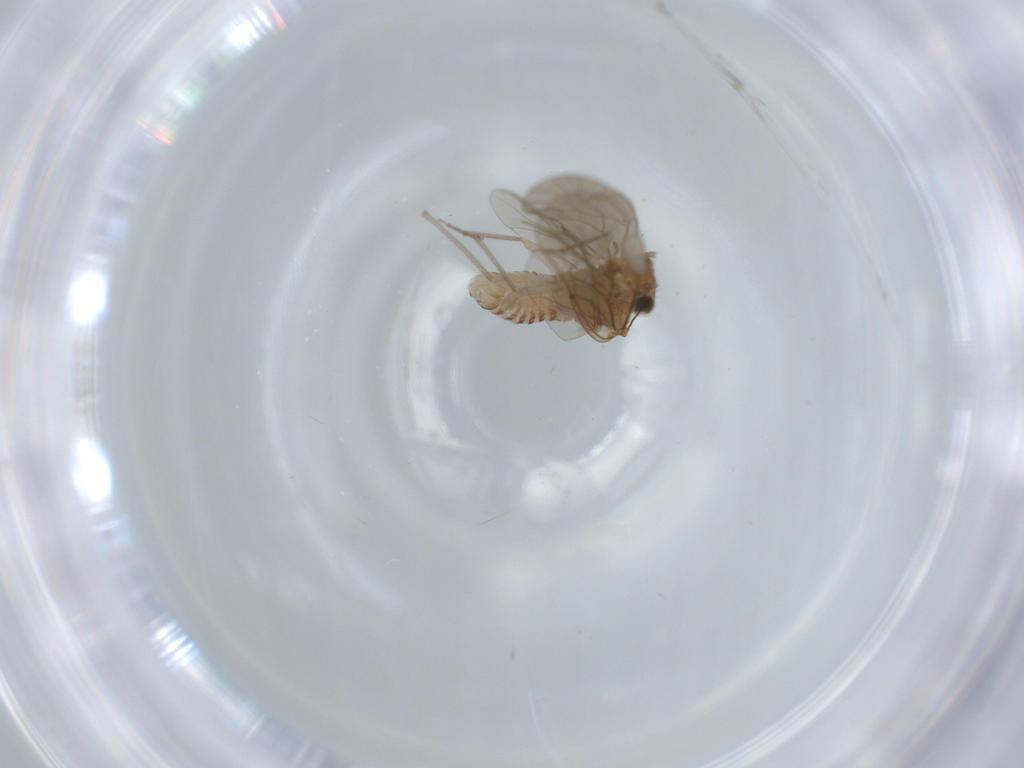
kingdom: Animalia
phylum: Arthropoda
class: Insecta
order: Psocodea
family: Lachesillidae
